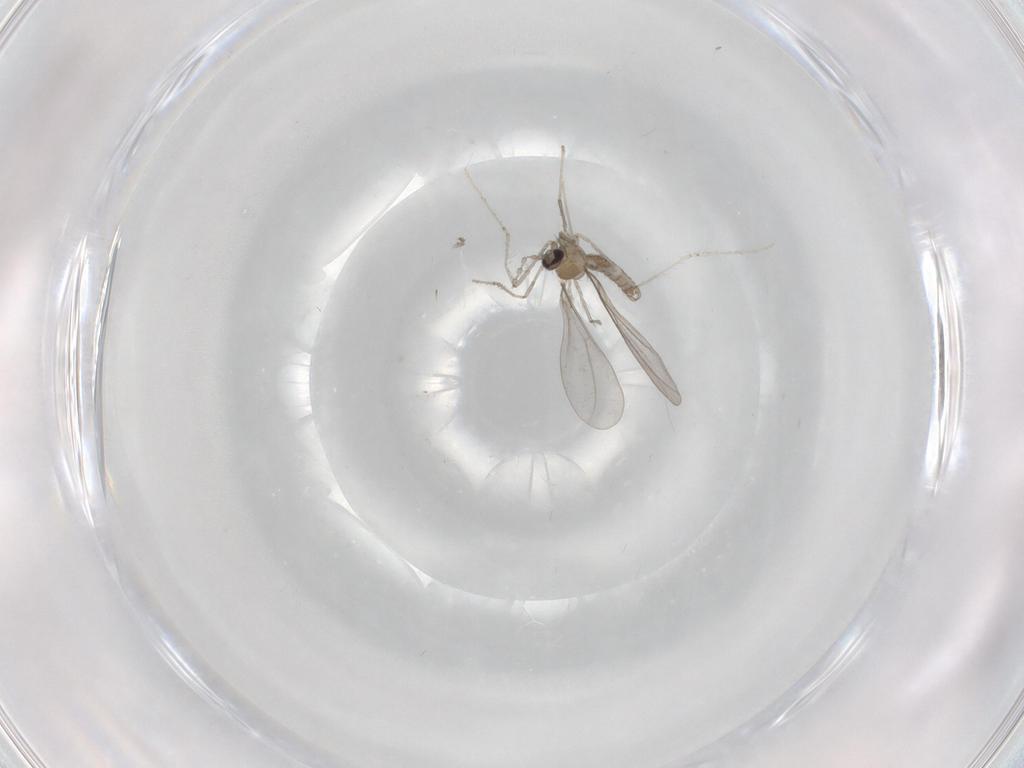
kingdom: Animalia
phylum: Arthropoda
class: Insecta
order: Diptera
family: Cecidomyiidae
